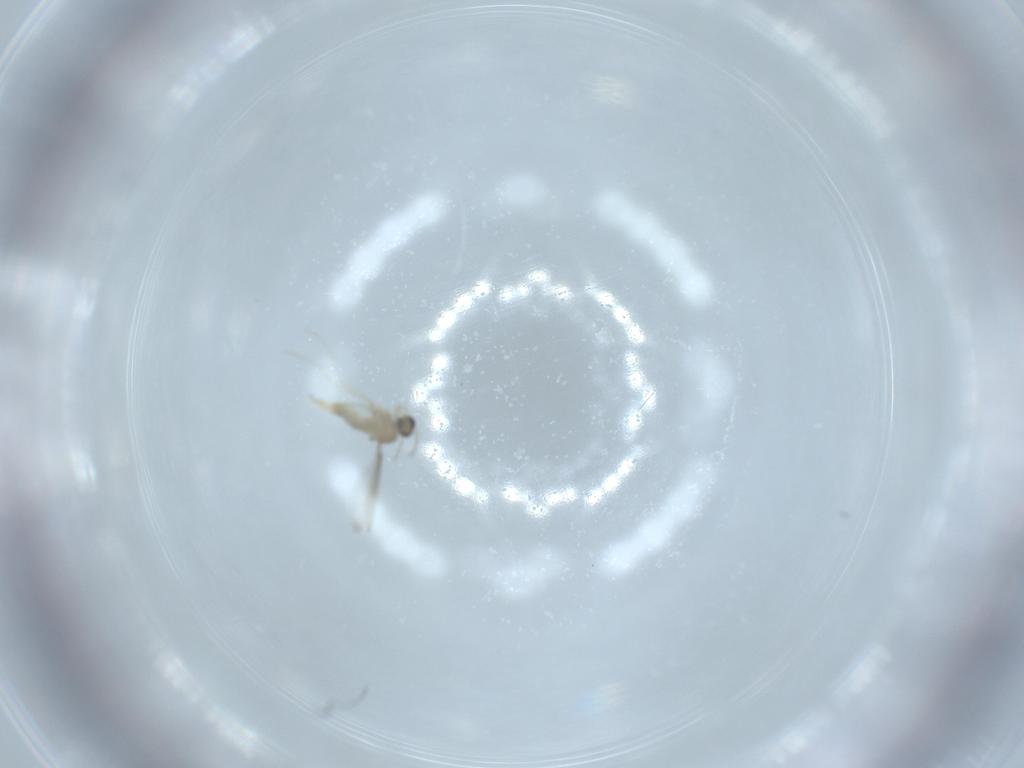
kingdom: Animalia
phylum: Arthropoda
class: Insecta
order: Diptera
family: Cecidomyiidae
